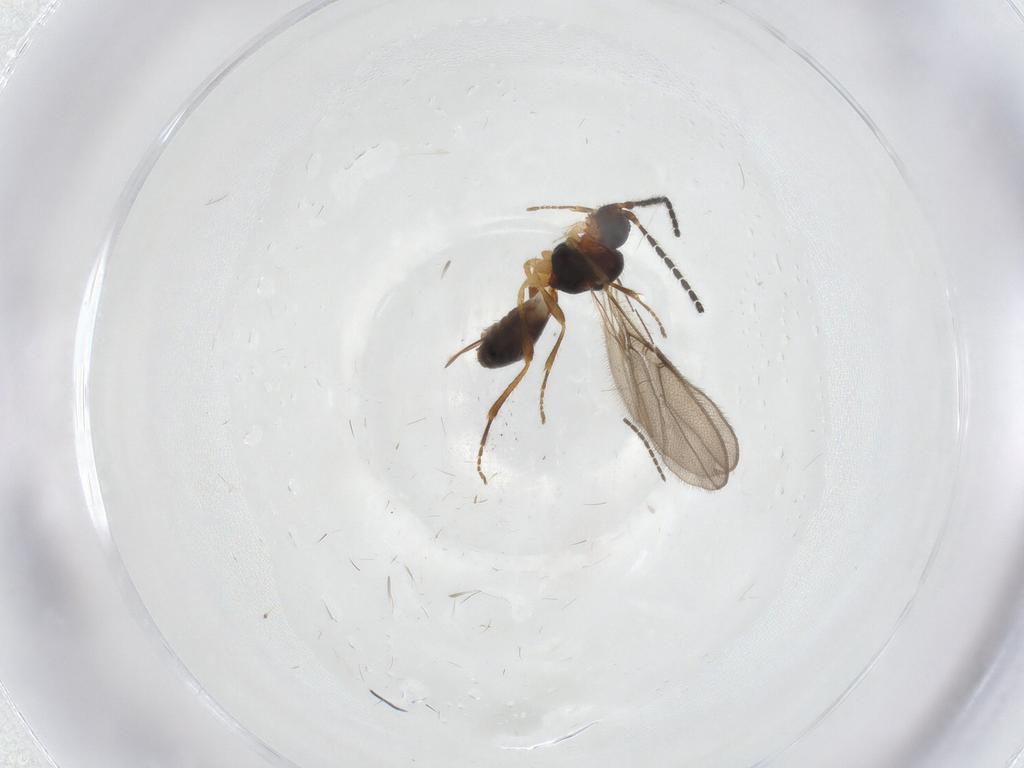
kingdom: Animalia
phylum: Arthropoda
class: Insecta
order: Hymenoptera
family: Braconidae
